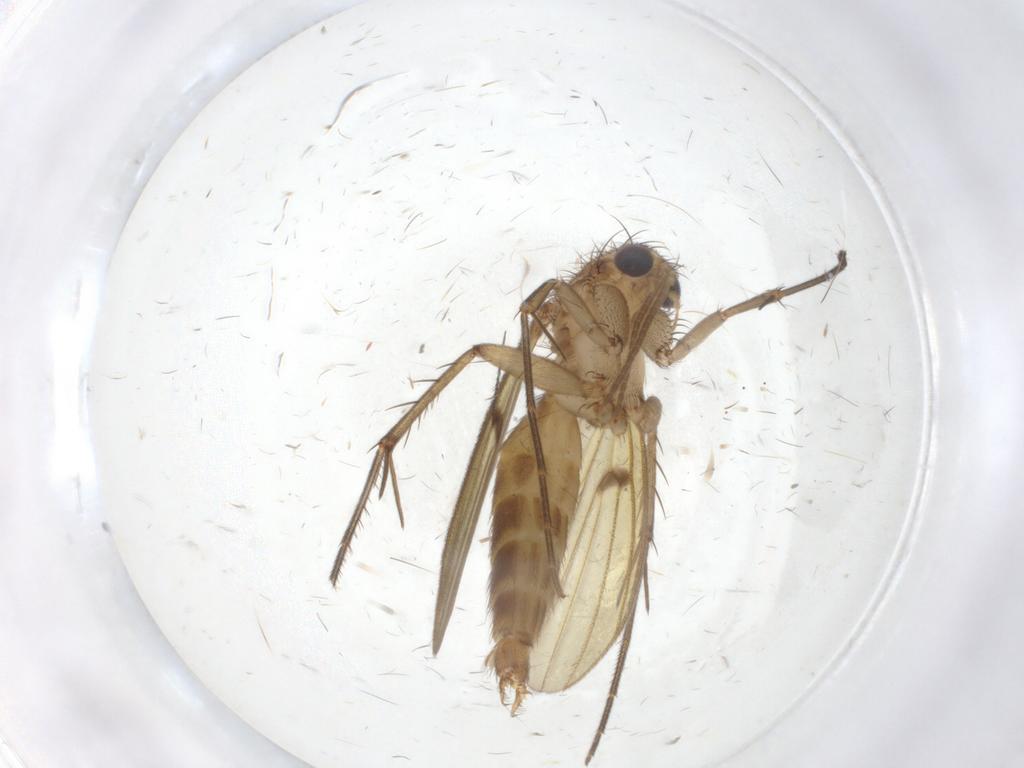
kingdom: Animalia
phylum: Arthropoda
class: Insecta
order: Diptera
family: Mycetophilidae
